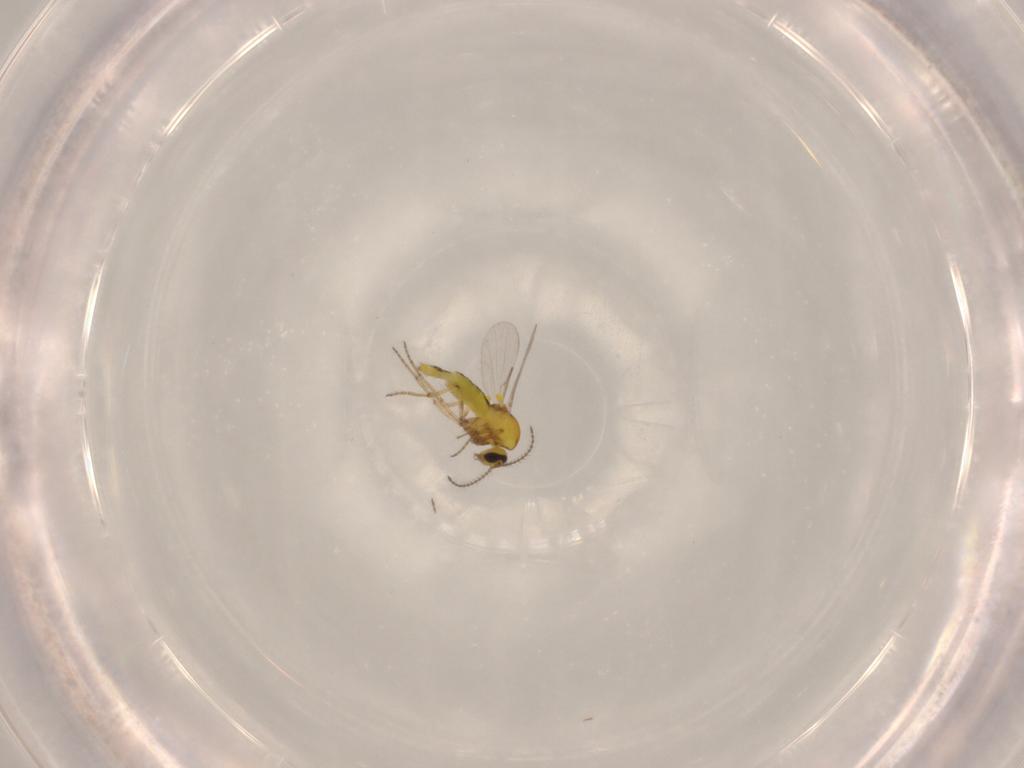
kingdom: Animalia
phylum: Arthropoda
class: Insecta
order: Diptera
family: Ceratopogonidae
